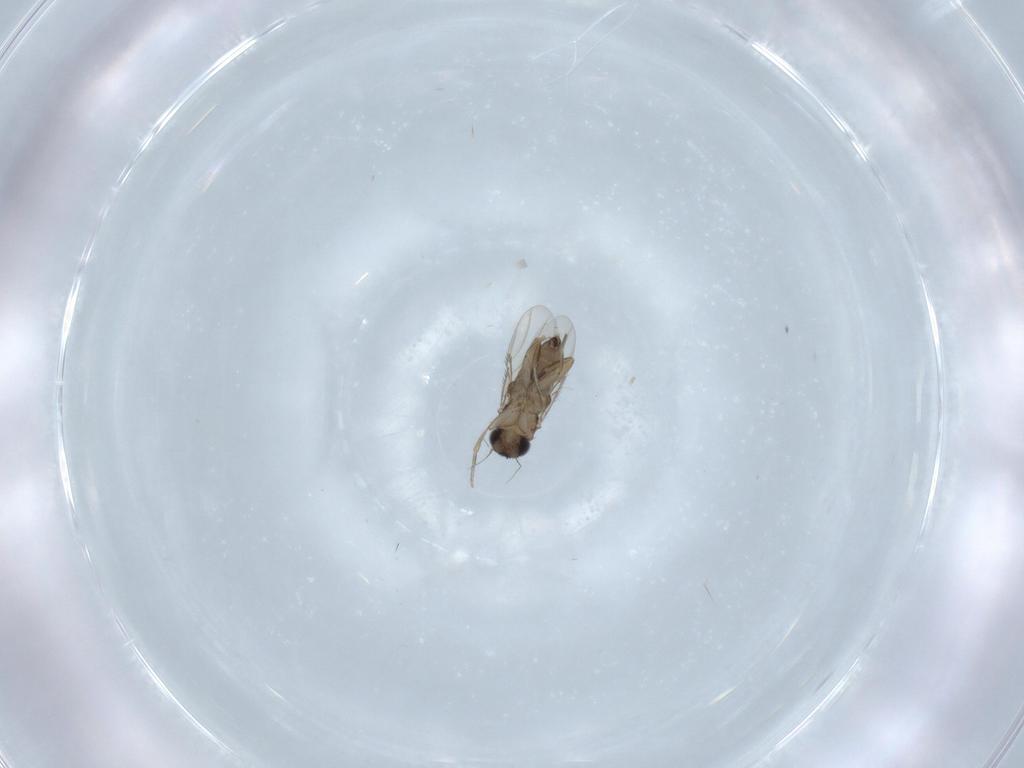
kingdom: Animalia
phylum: Arthropoda
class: Insecta
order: Diptera
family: Phoridae
